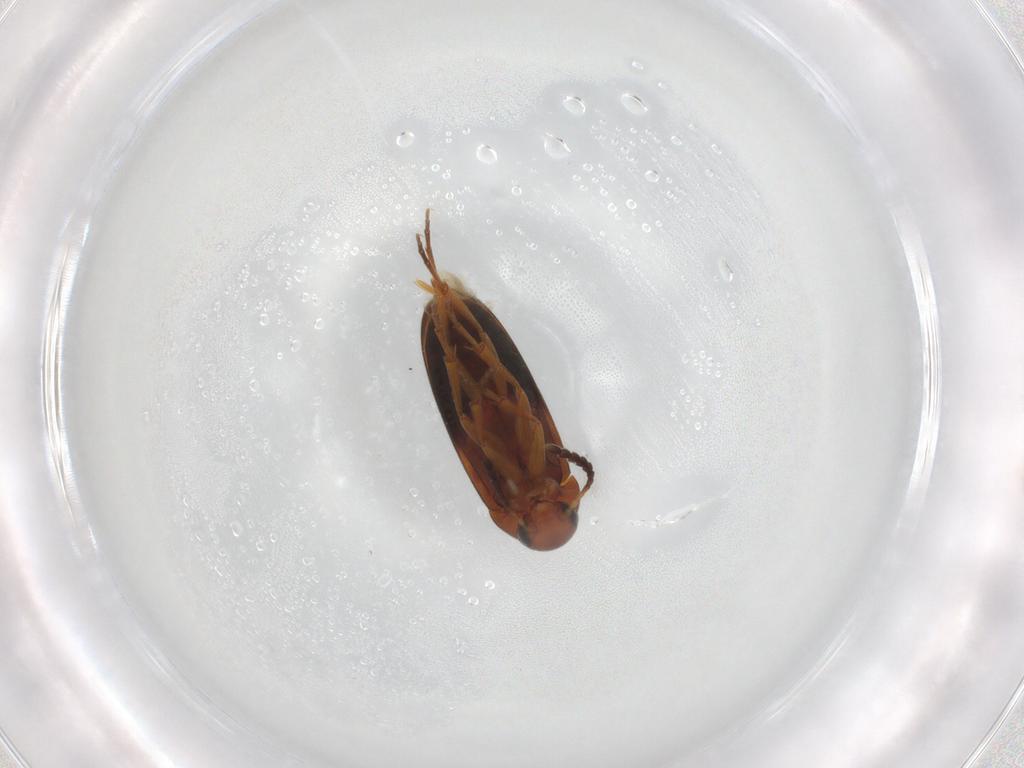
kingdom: Animalia
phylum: Arthropoda
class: Insecta
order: Coleoptera
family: Scraptiidae
